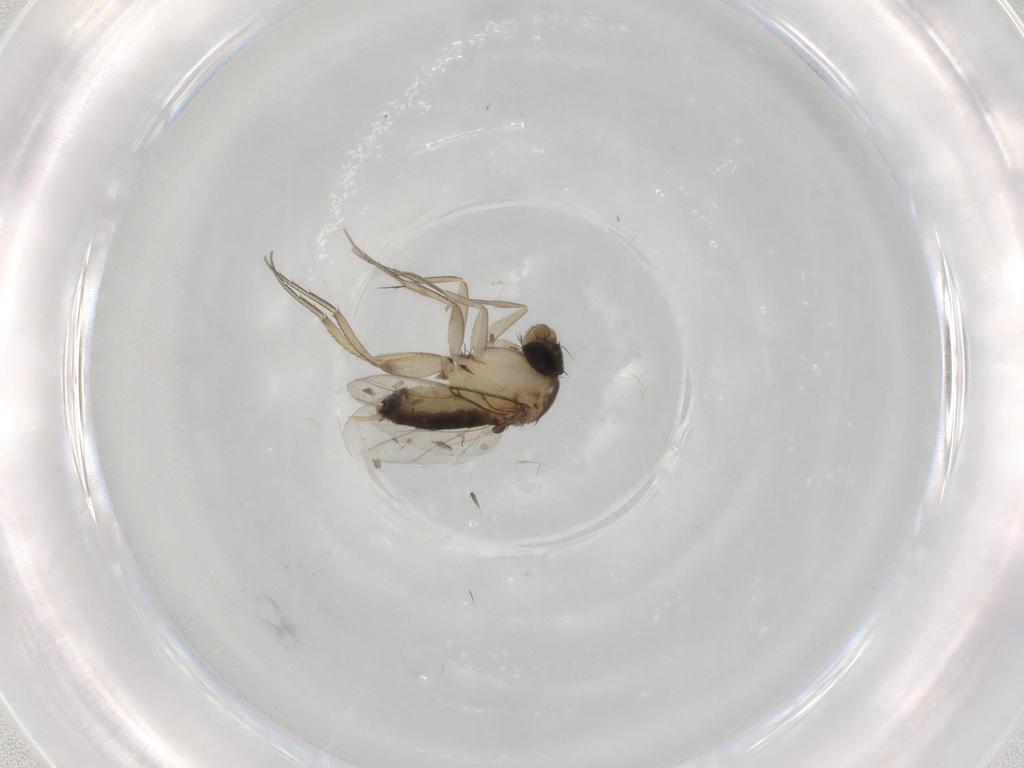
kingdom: Animalia
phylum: Arthropoda
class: Insecta
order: Diptera
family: Phoridae
